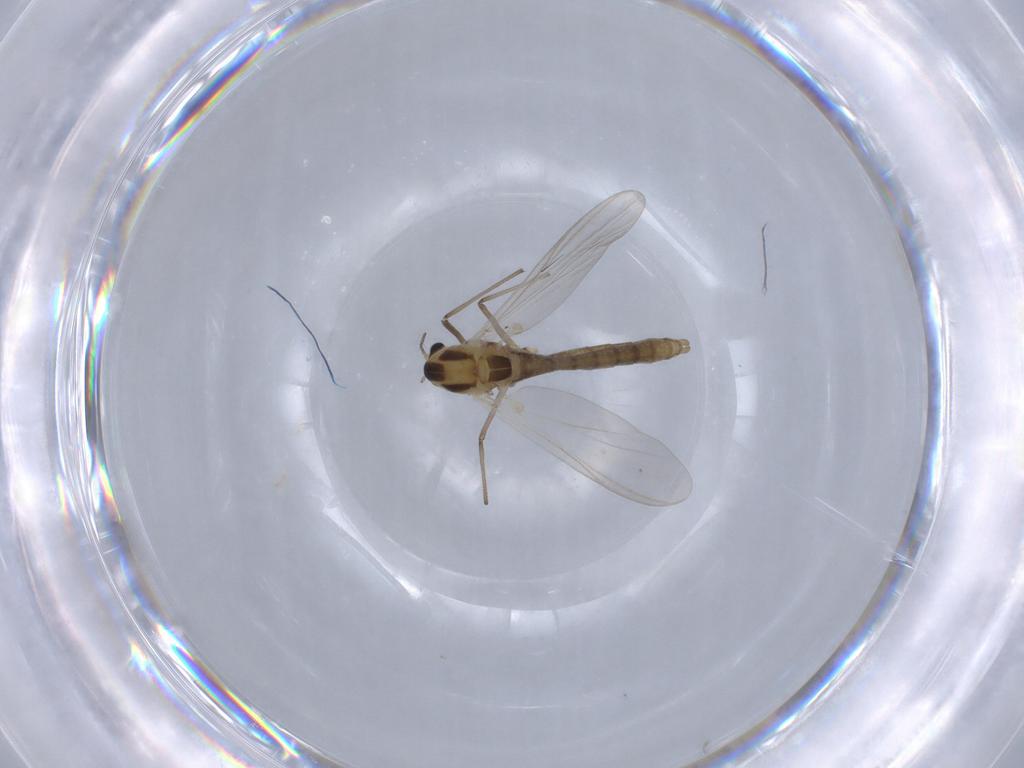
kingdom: Animalia
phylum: Arthropoda
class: Insecta
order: Diptera
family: Chironomidae
